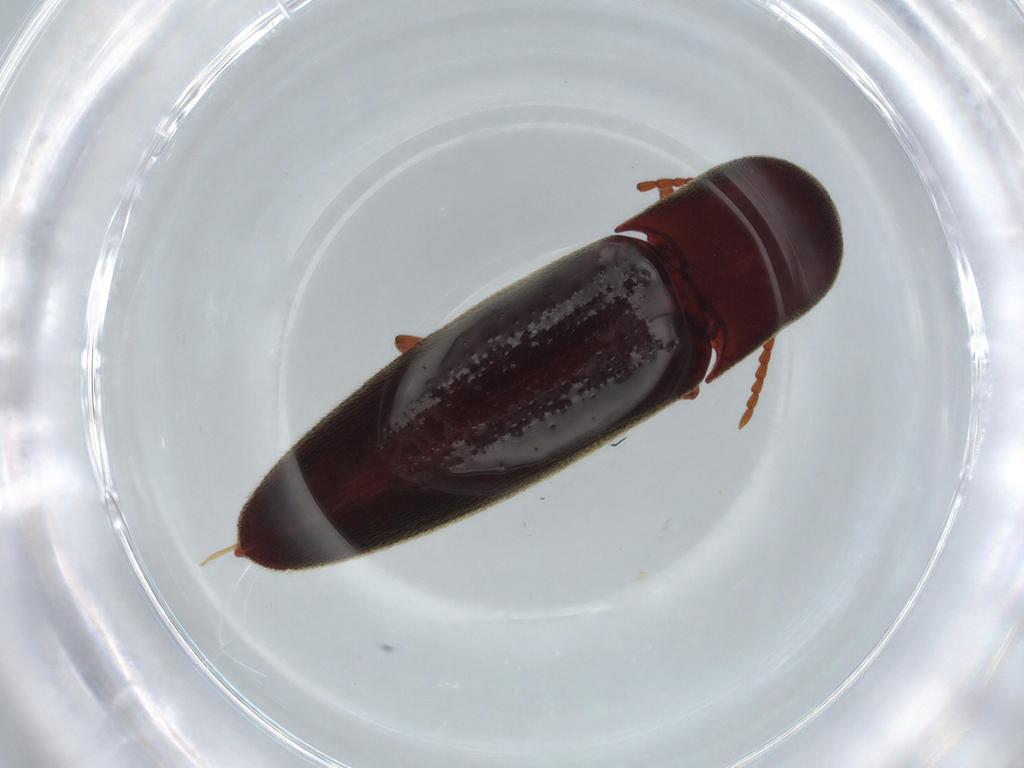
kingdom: Animalia
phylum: Arthropoda
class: Insecta
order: Coleoptera
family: Eucnemidae
